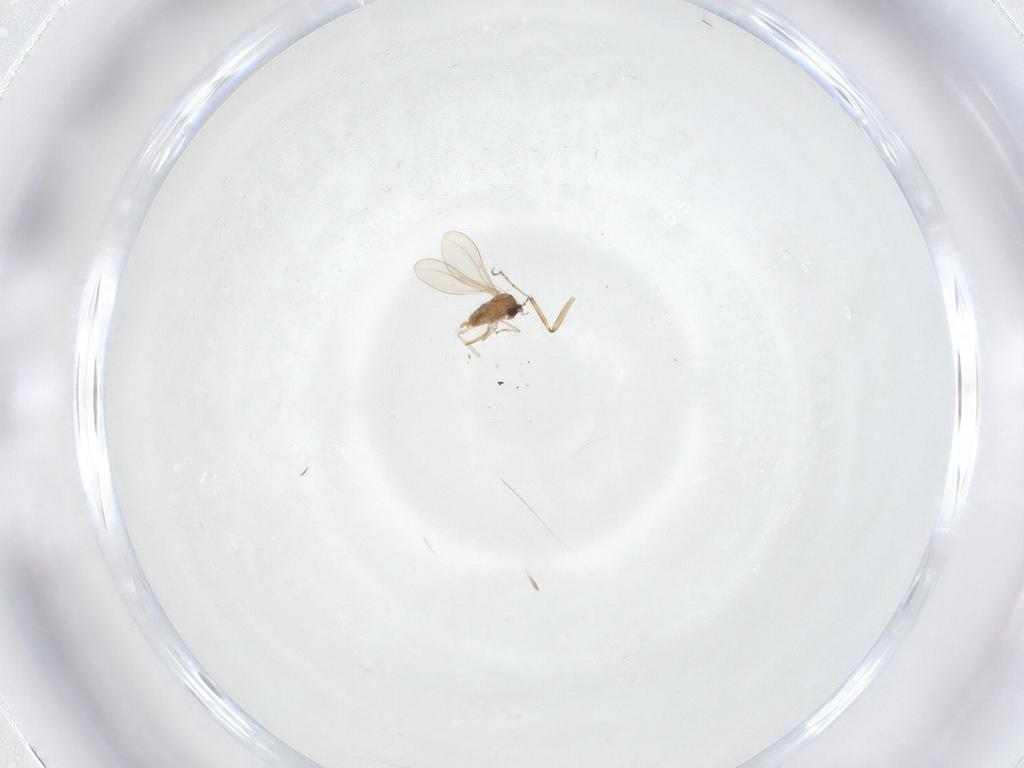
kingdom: Animalia
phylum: Arthropoda
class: Insecta
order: Diptera
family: Cecidomyiidae
